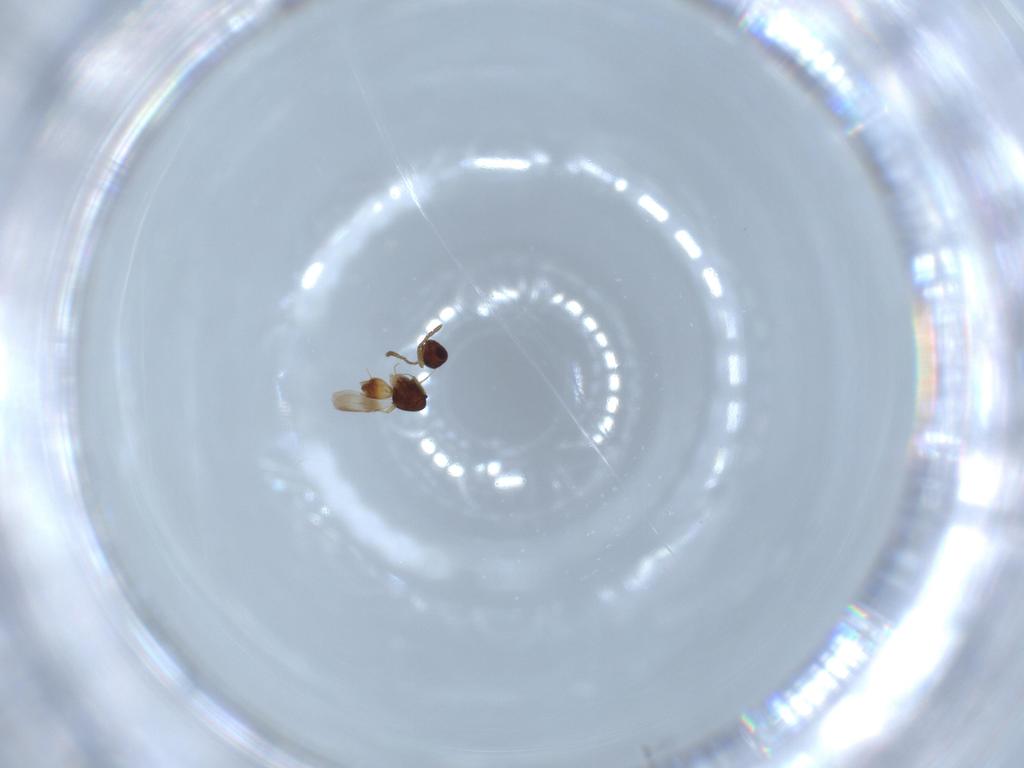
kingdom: Animalia
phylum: Arthropoda
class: Insecta
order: Hymenoptera
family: Ceraphronidae
